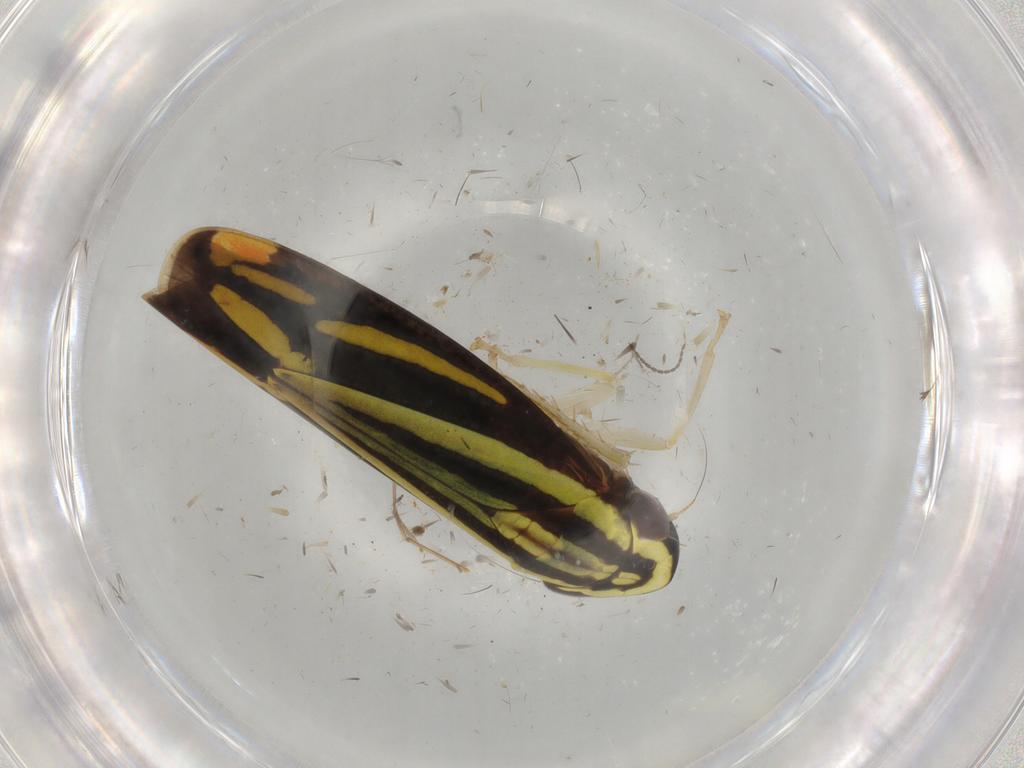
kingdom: Animalia
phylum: Arthropoda
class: Insecta
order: Hemiptera
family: Cicadellidae
